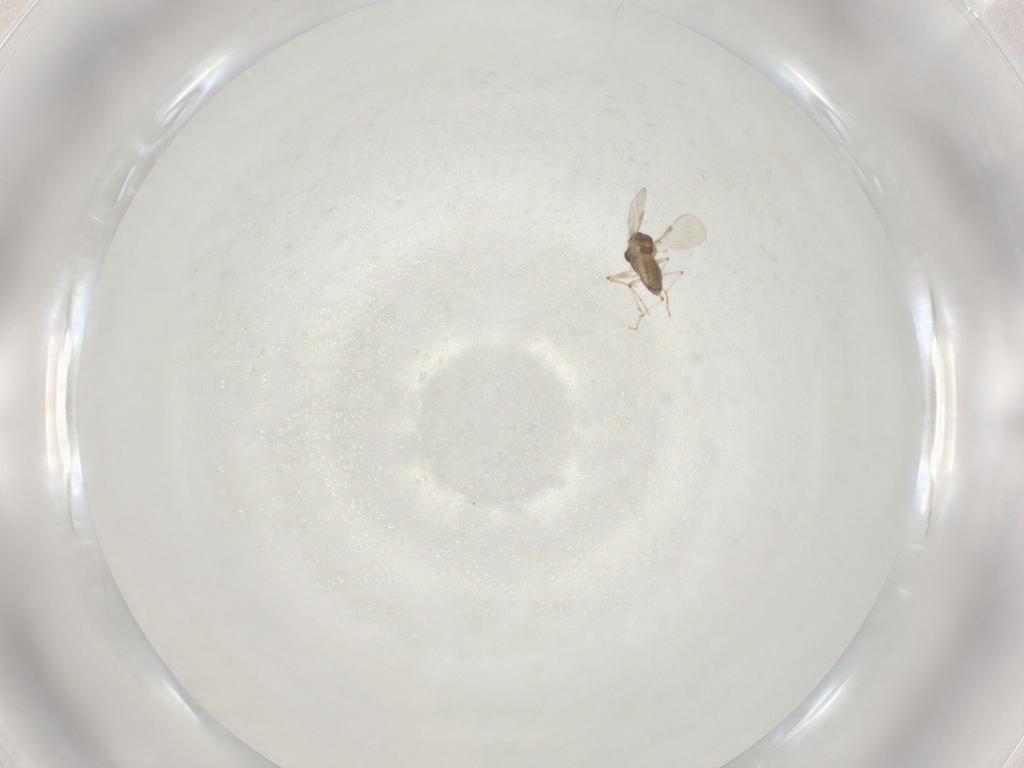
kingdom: Animalia
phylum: Arthropoda
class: Insecta
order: Diptera
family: Chironomidae
